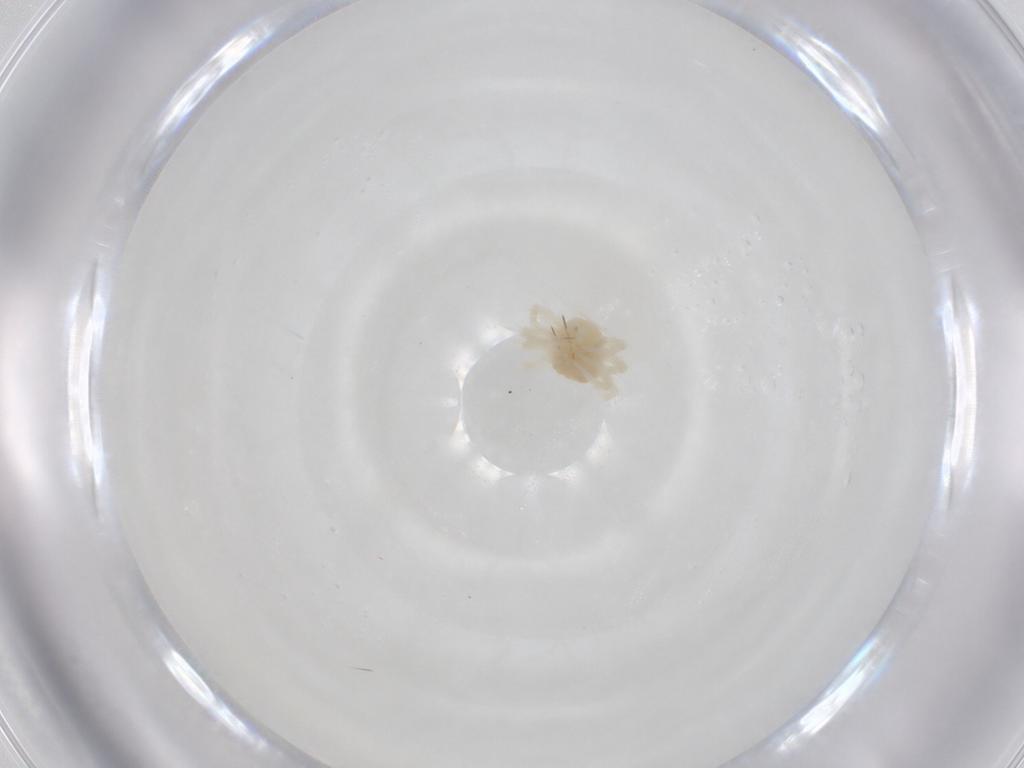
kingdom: Animalia
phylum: Arthropoda
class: Insecta
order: Hymenoptera
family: Formicidae
